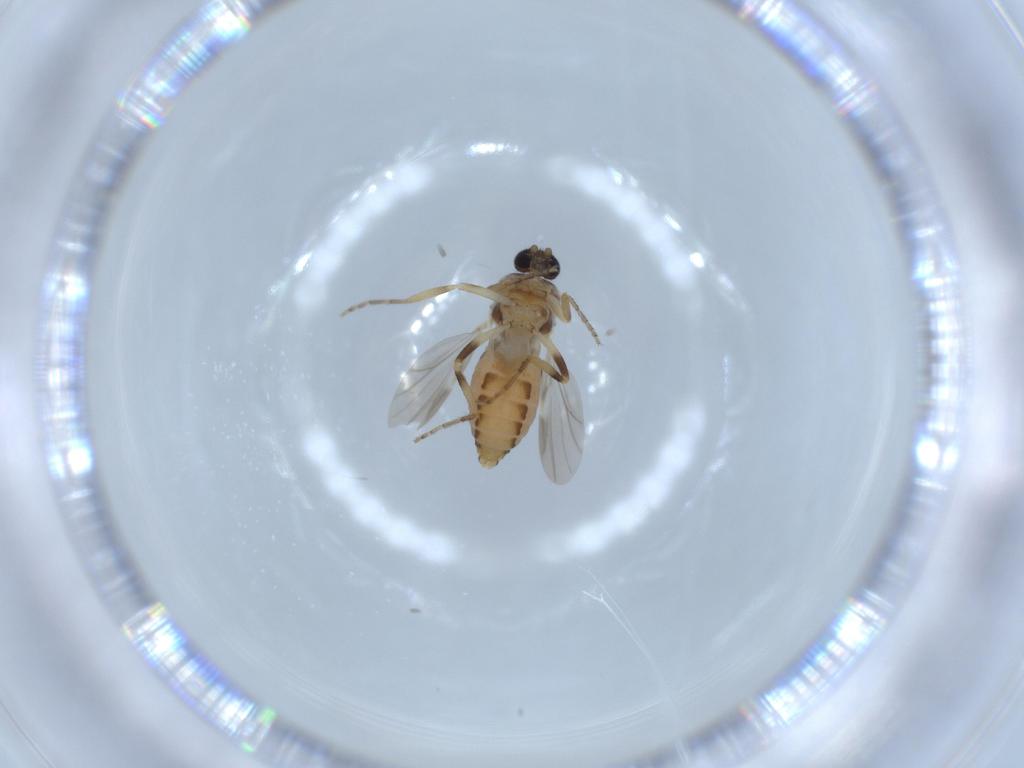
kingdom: Animalia
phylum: Arthropoda
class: Insecta
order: Diptera
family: Ceratopogonidae
